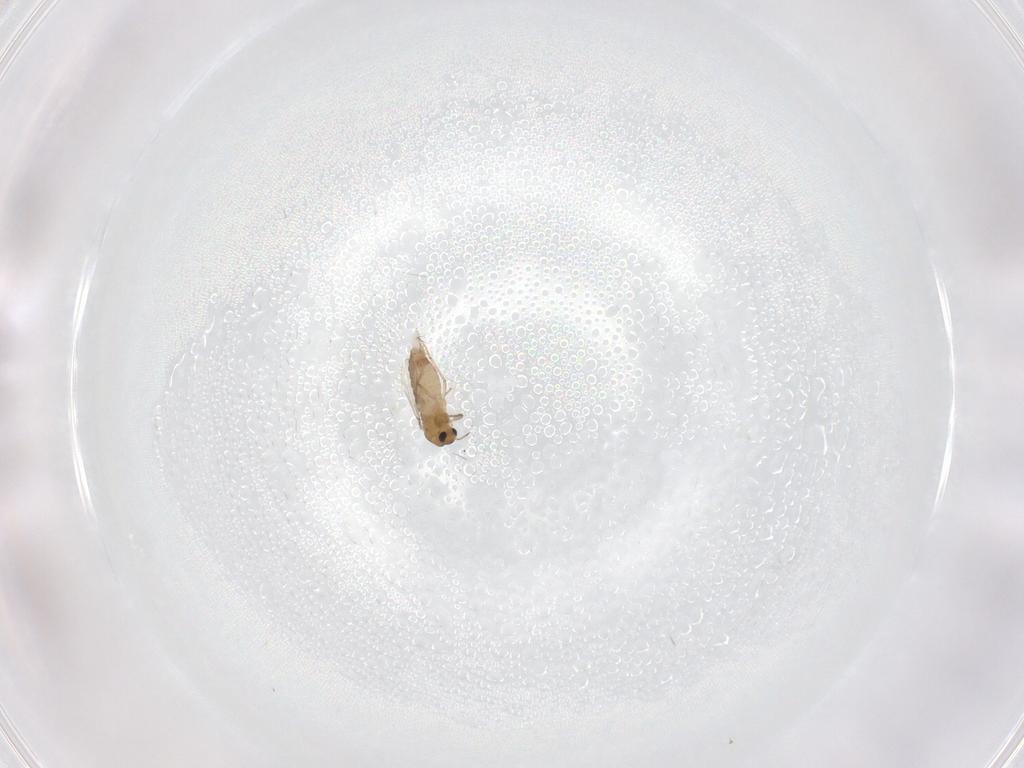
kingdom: Animalia
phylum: Arthropoda
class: Insecta
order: Diptera
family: Chironomidae
